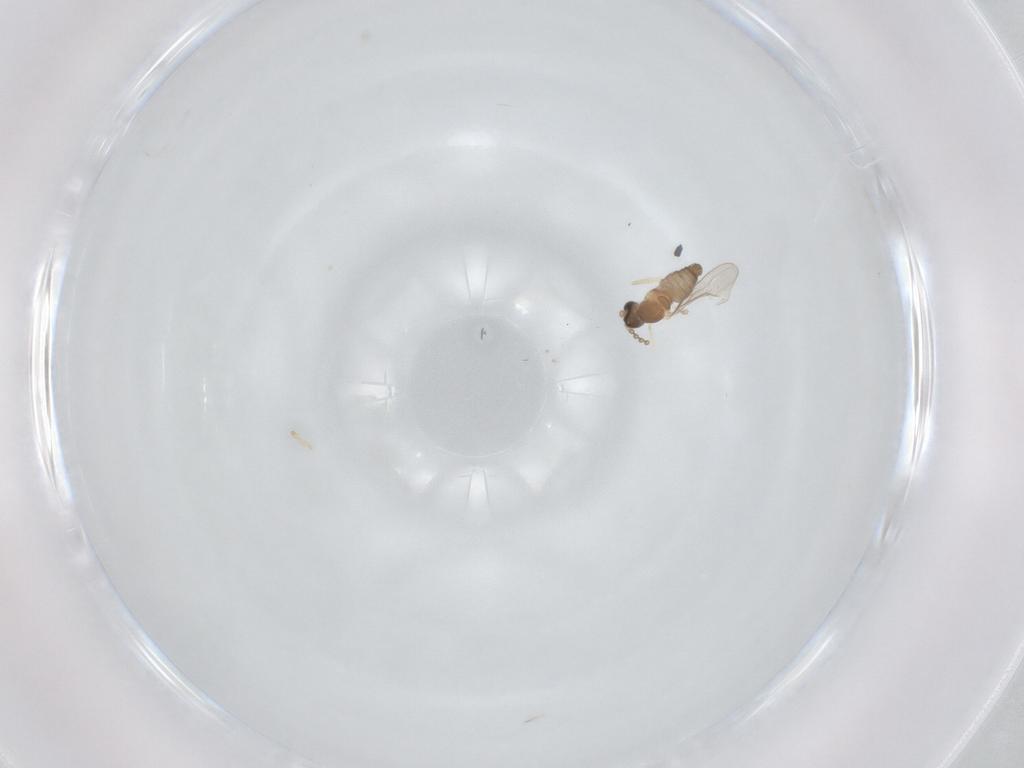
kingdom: Animalia
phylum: Arthropoda
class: Insecta
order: Diptera
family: Cecidomyiidae
